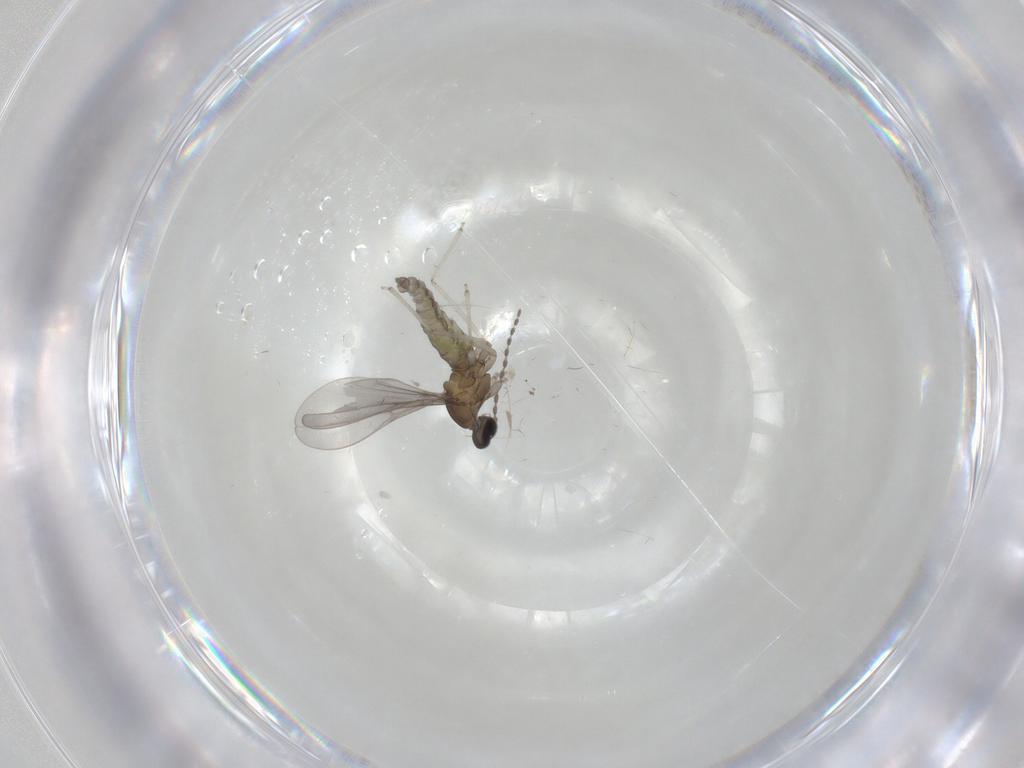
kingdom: Animalia
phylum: Arthropoda
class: Insecta
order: Diptera
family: Cecidomyiidae
